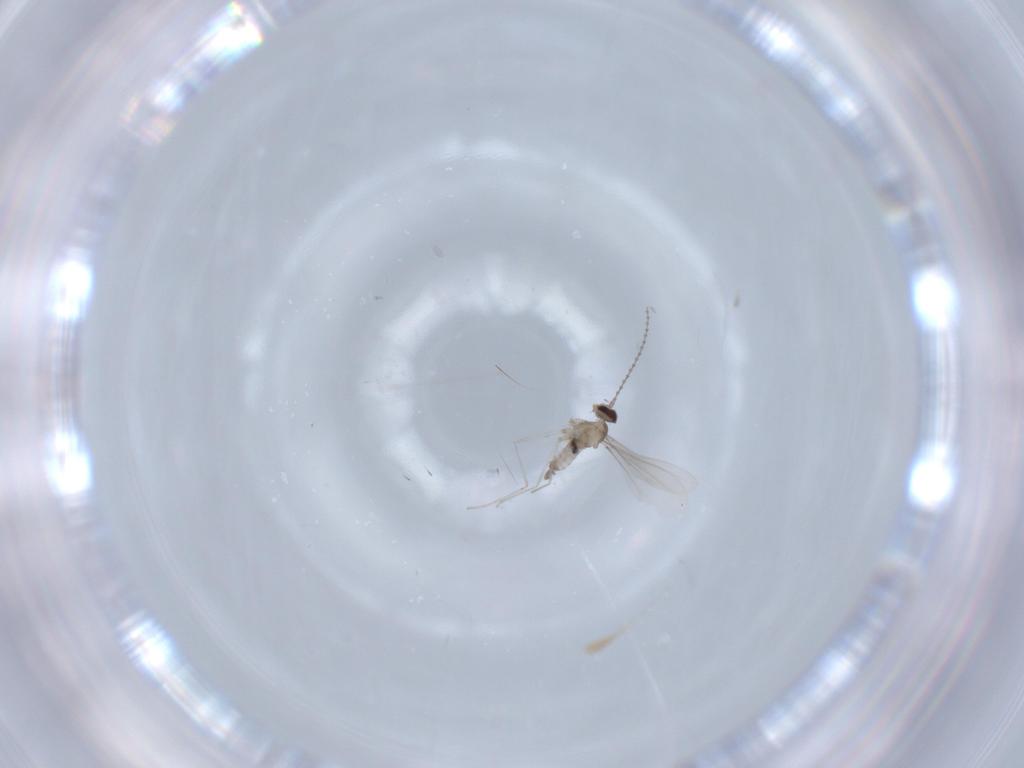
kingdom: Animalia
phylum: Arthropoda
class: Insecta
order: Diptera
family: Cecidomyiidae
